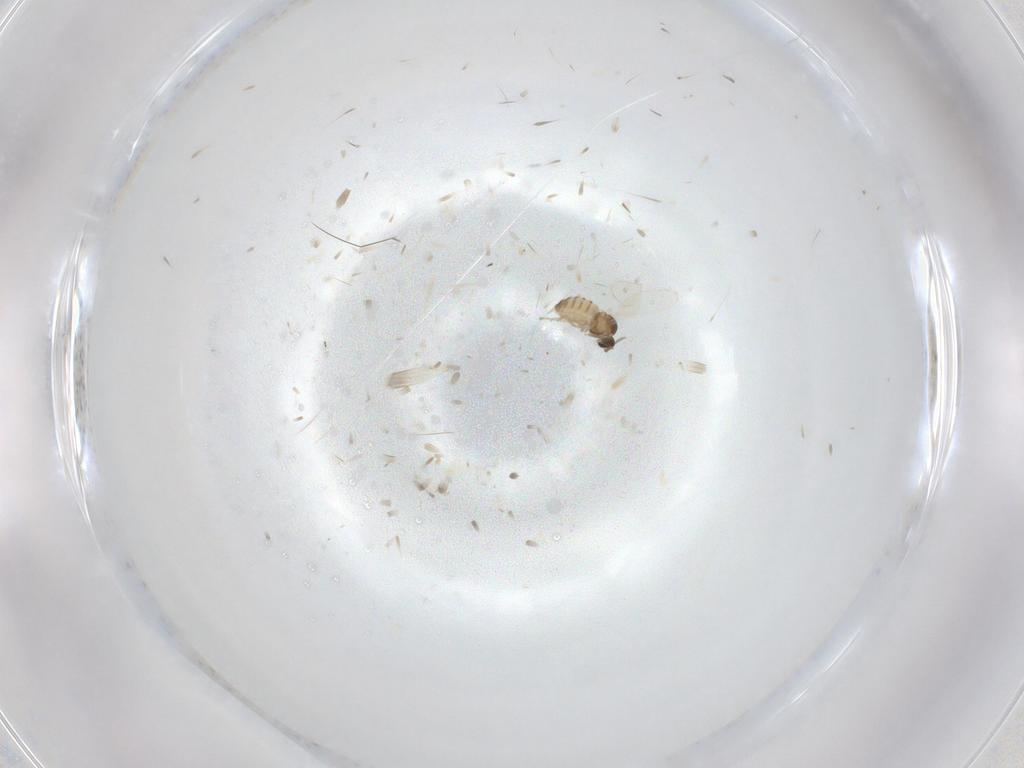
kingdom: Animalia
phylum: Arthropoda
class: Insecta
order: Diptera
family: Cecidomyiidae
